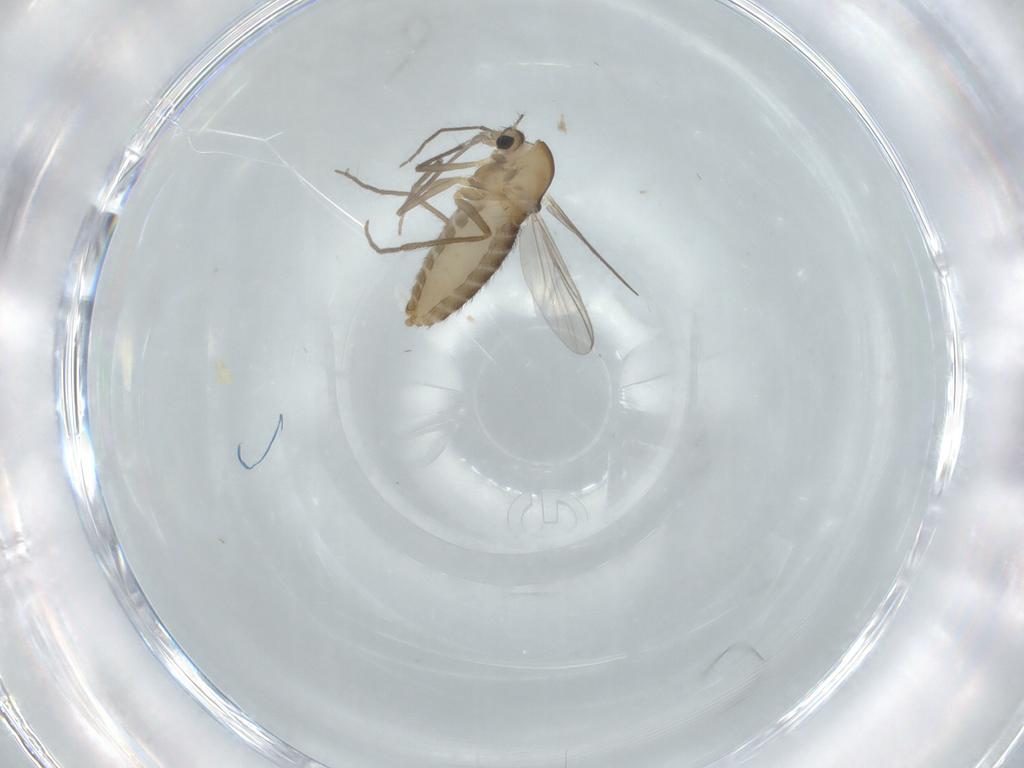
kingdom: Animalia
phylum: Arthropoda
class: Insecta
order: Diptera
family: Chironomidae
